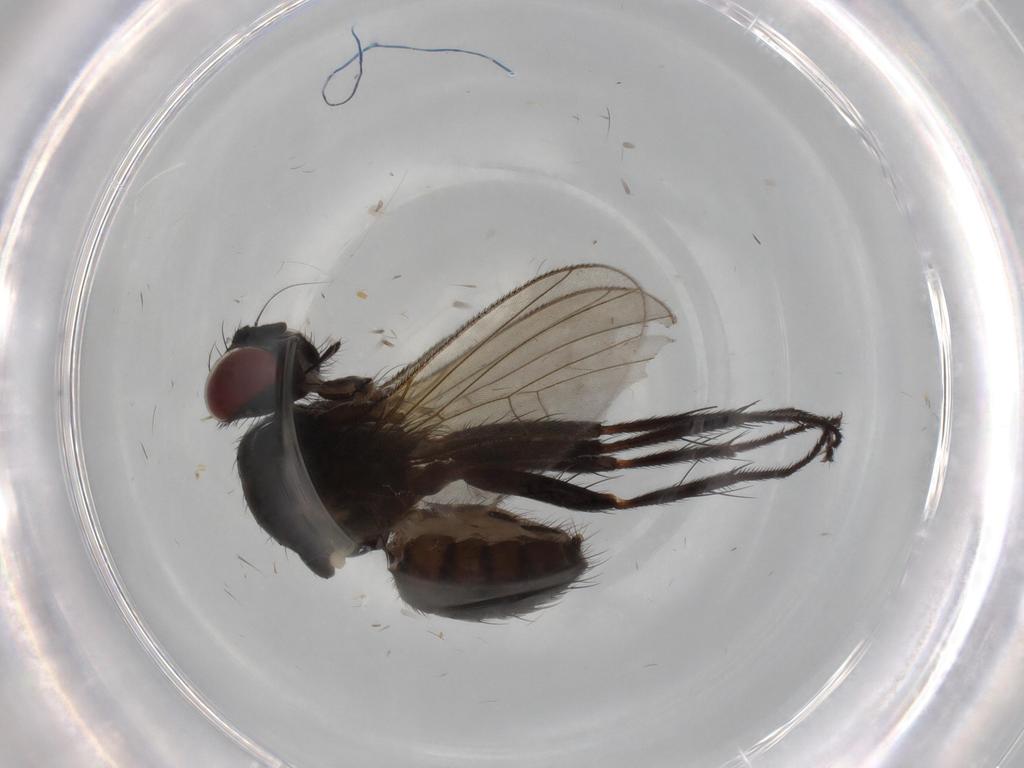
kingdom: Animalia
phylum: Arthropoda
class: Insecta
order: Diptera
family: Muscidae
